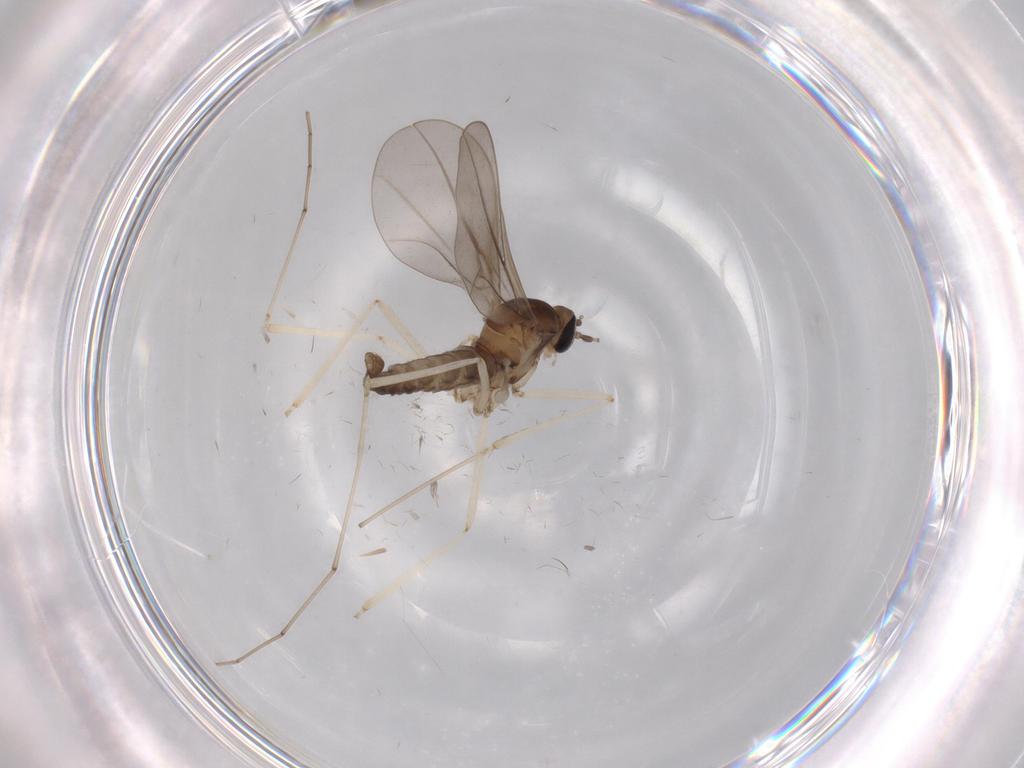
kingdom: Animalia
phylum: Arthropoda
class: Insecta
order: Diptera
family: Cecidomyiidae
